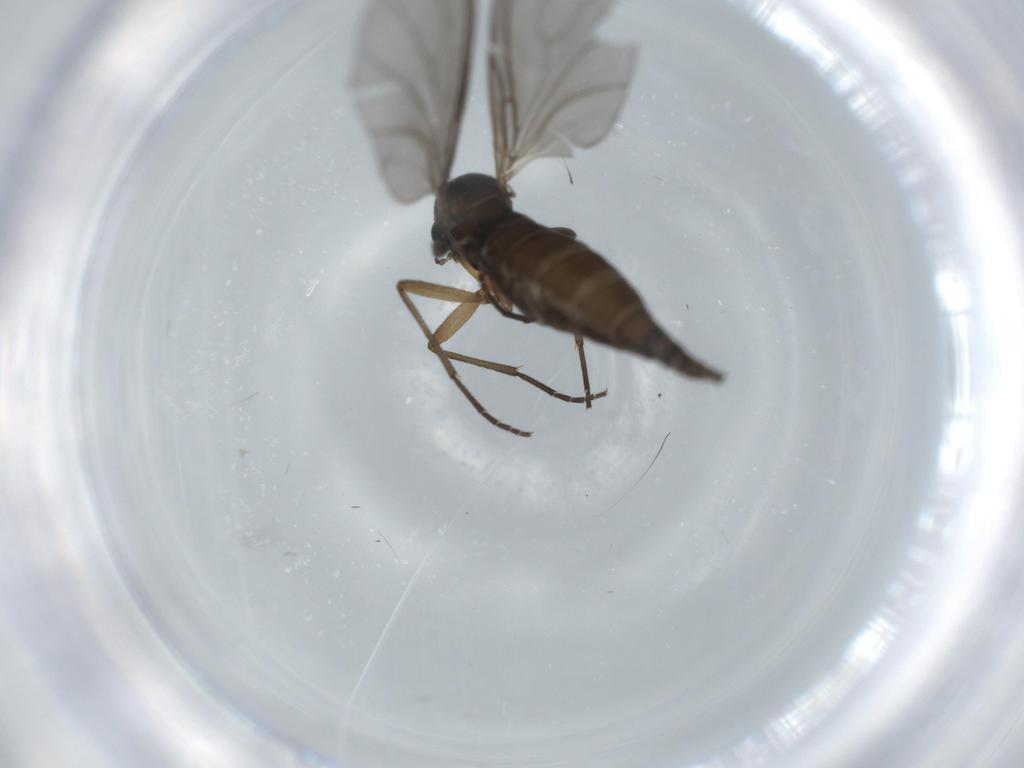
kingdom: Animalia
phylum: Arthropoda
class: Insecta
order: Diptera
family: Sciaridae
